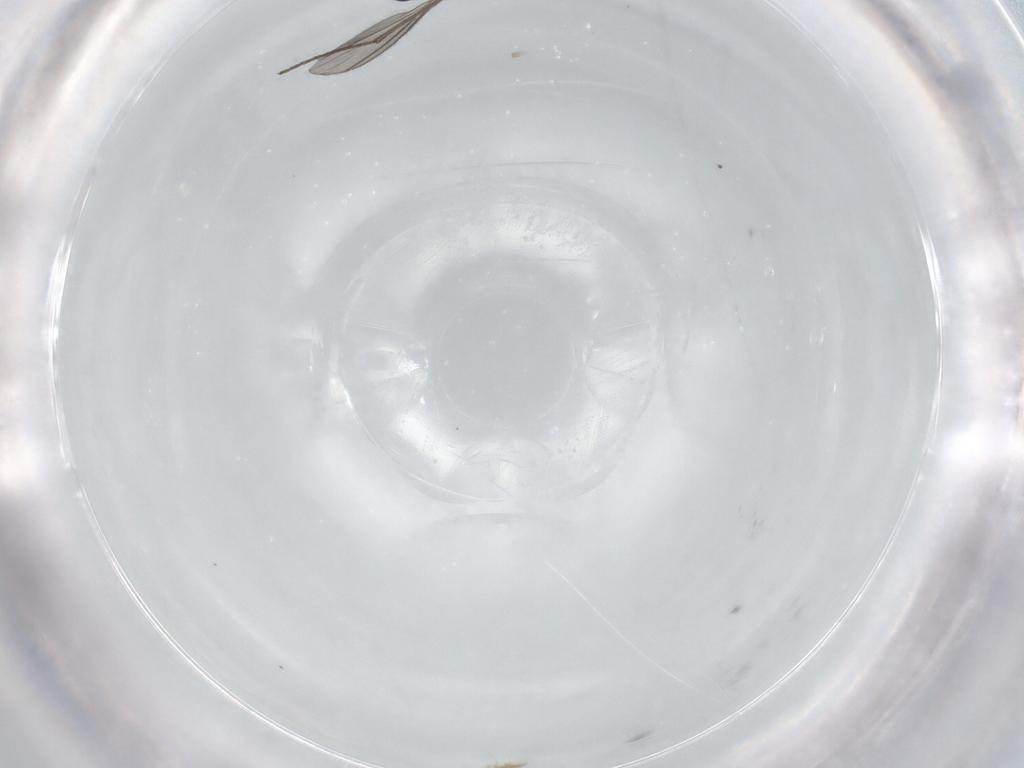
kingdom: Animalia
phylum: Arthropoda
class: Insecta
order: Diptera
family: Sciaridae
